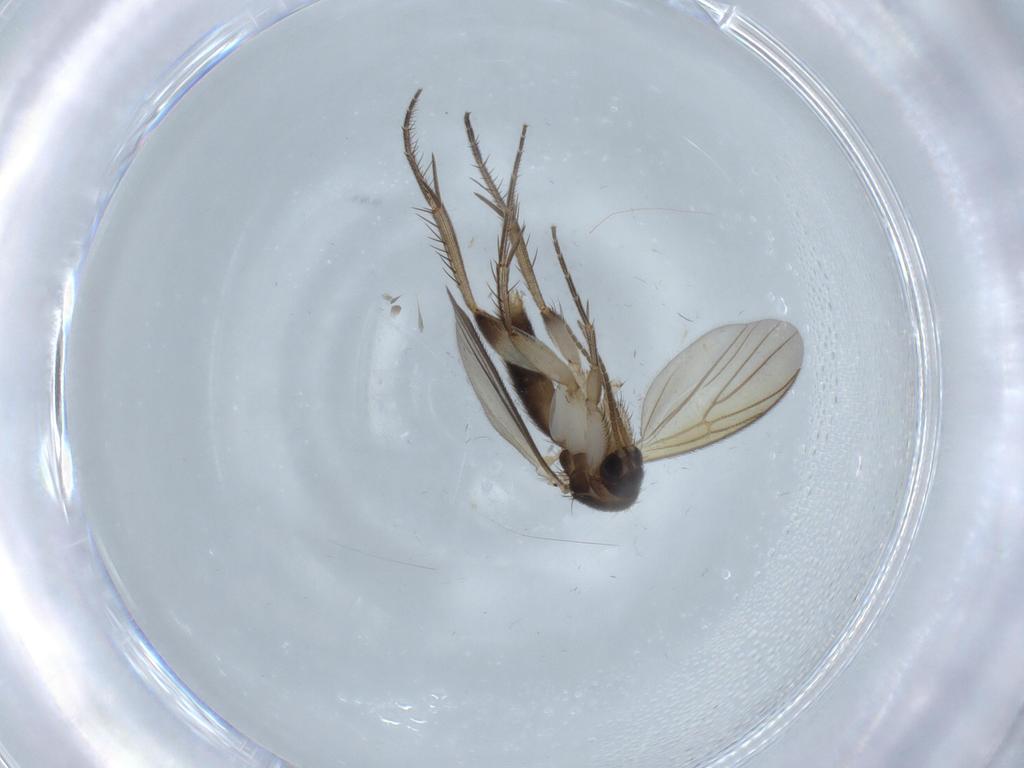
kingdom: Animalia
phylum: Arthropoda
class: Insecta
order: Diptera
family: Mycetophilidae
